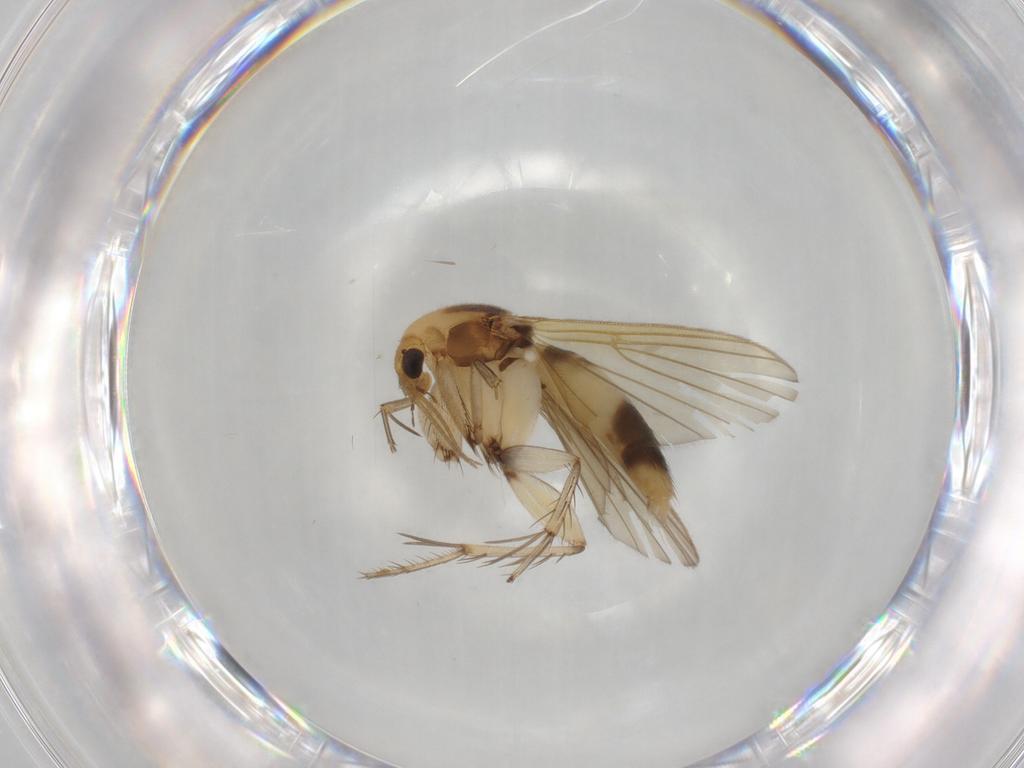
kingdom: Animalia
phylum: Arthropoda
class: Insecta
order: Diptera
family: Mycetophilidae
